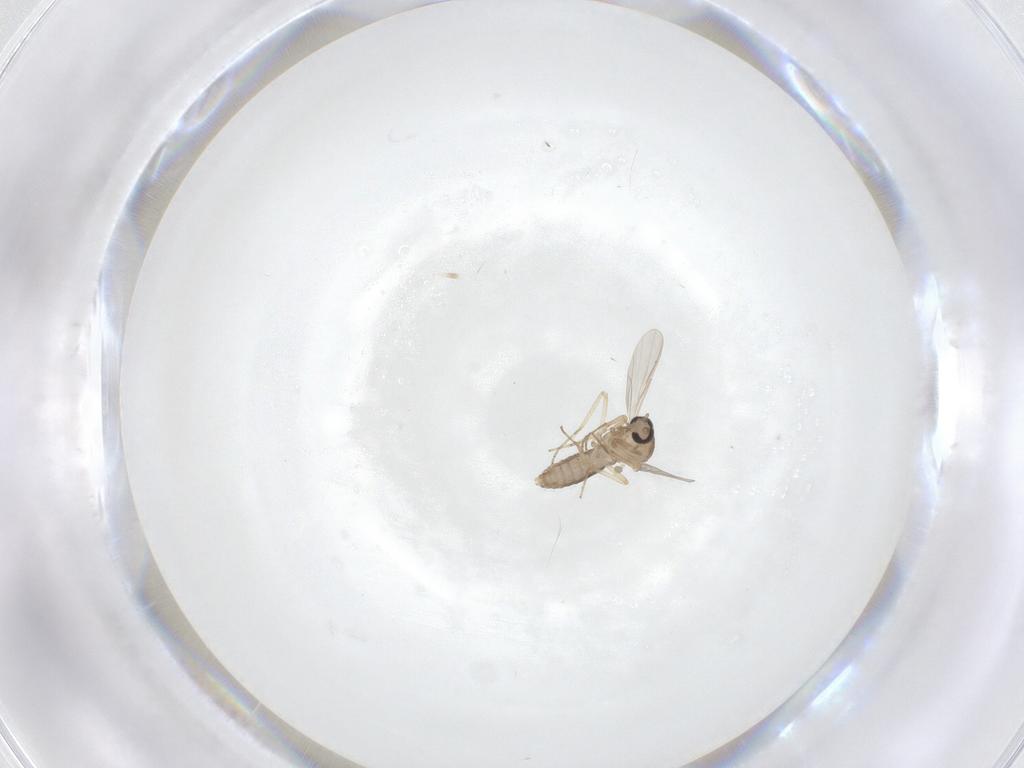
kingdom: Animalia
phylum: Arthropoda
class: Insecta
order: Diptera
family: Ceratopogonidae
